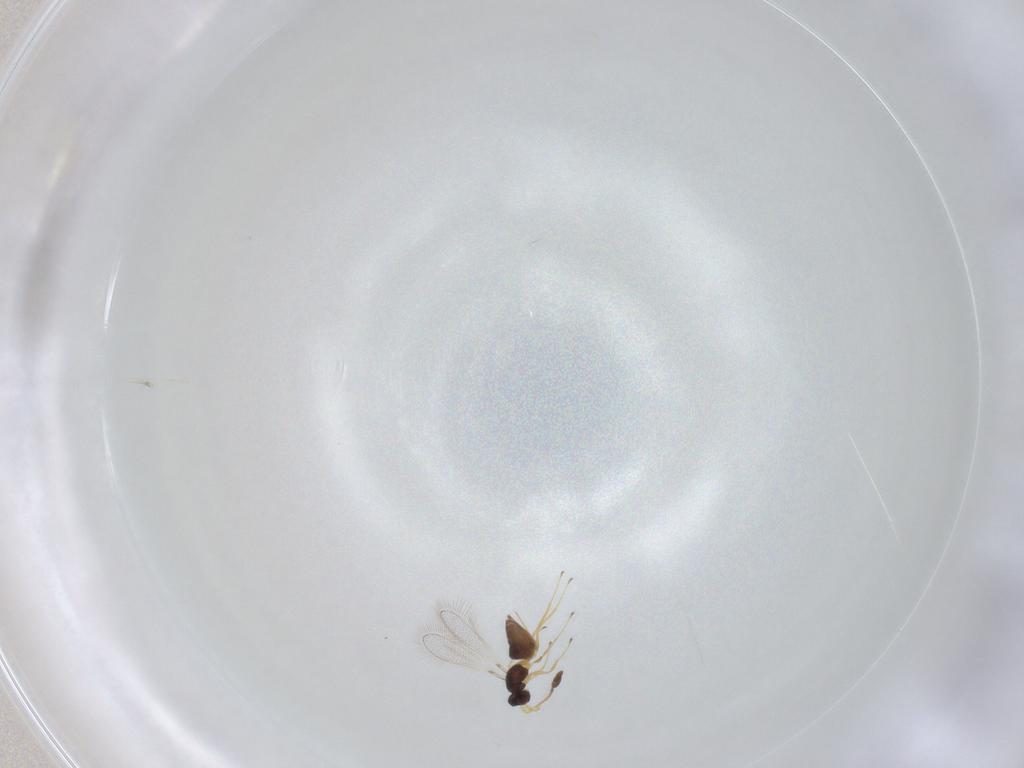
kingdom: Animalia
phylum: Arthropoda
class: Insecta
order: Hymenoptera
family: Mymaridae
